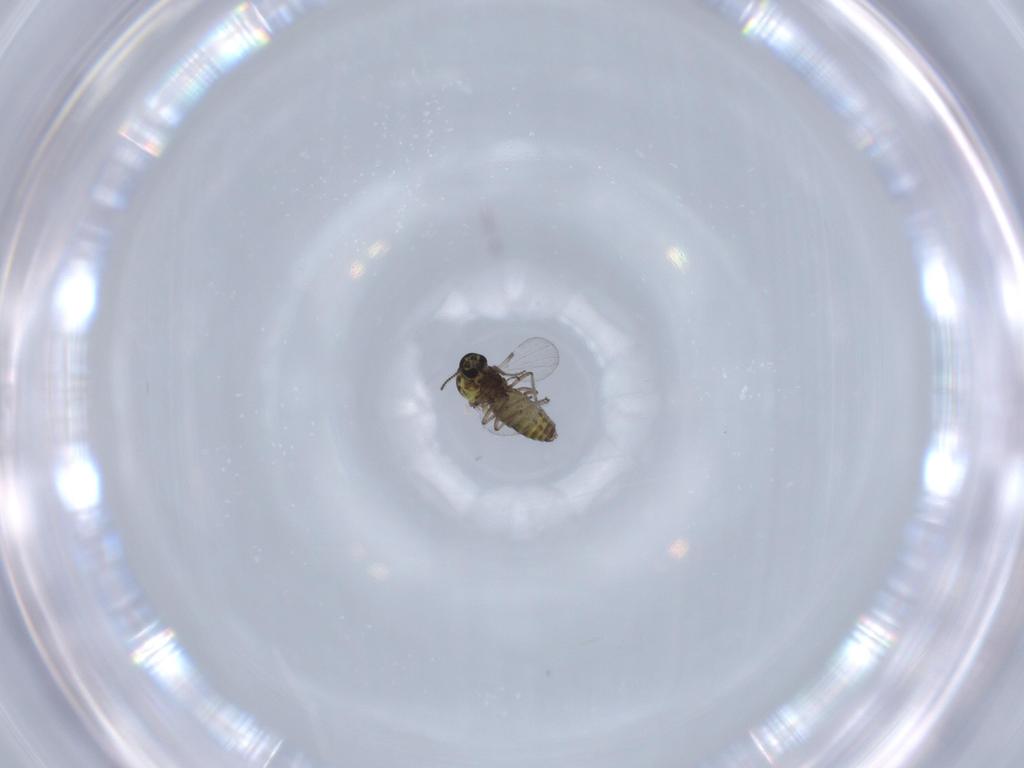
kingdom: Animalia
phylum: Arthropoda
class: Insecta
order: Diptera
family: Ceratopogonidae
